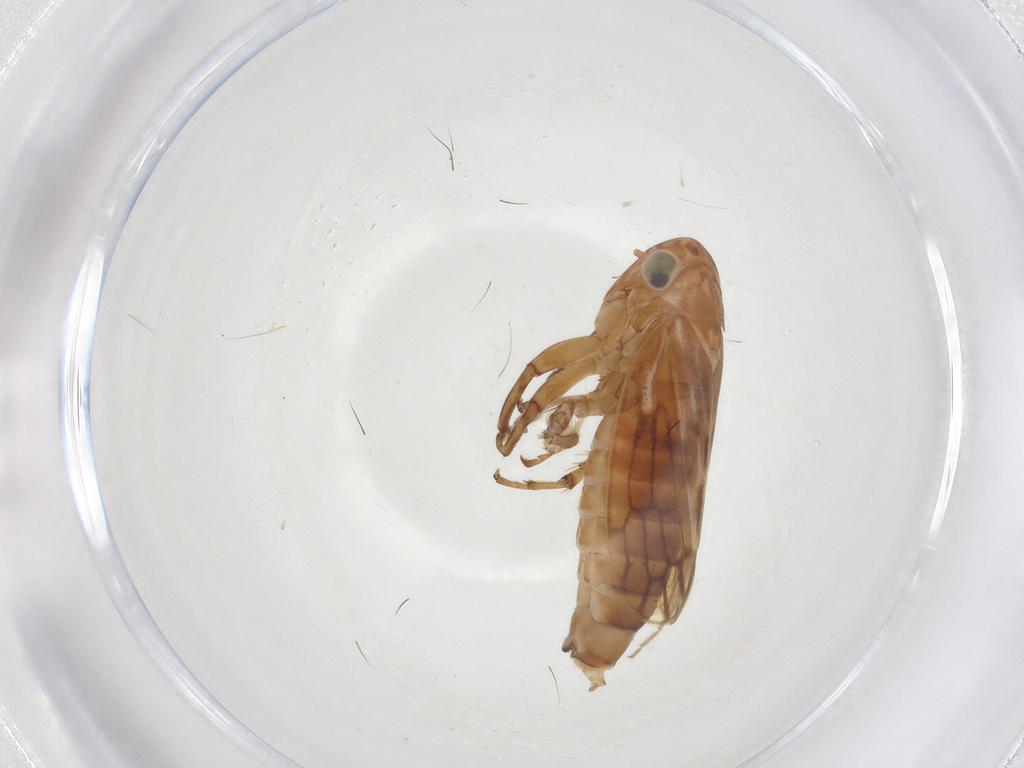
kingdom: Animalia
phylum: Arthropoda
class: Insecta
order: Hemiptera
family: Cicadellidae
